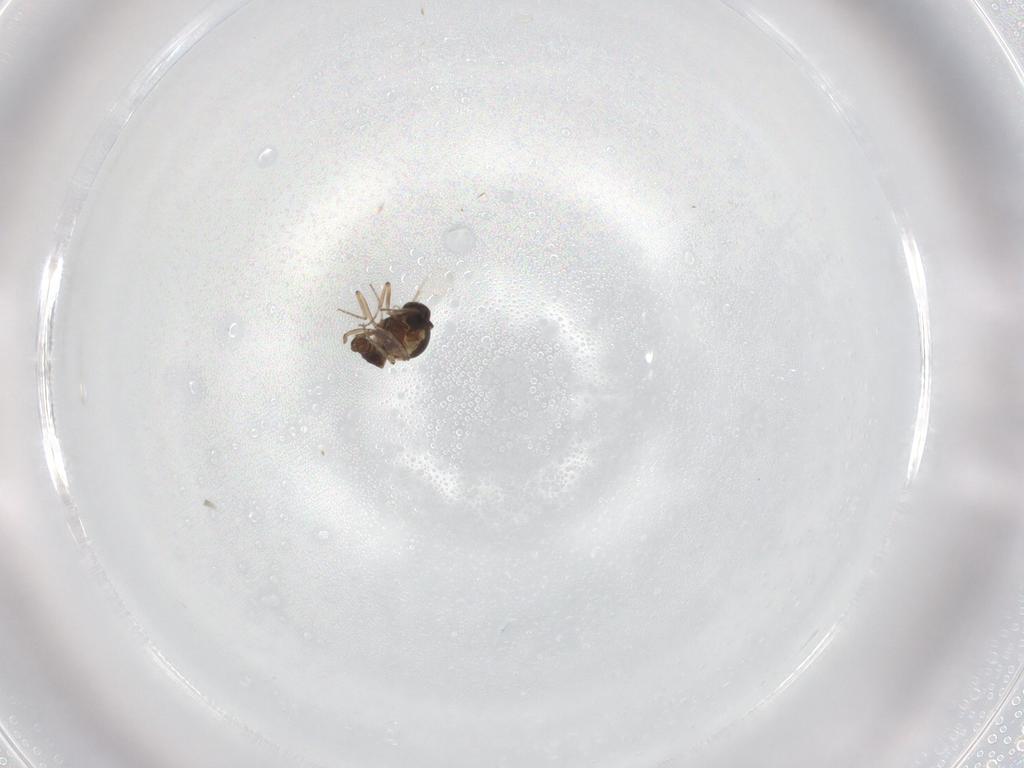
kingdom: Animalia
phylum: Arthropoda
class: Insecta
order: Diptera
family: Ceratopogonidae
